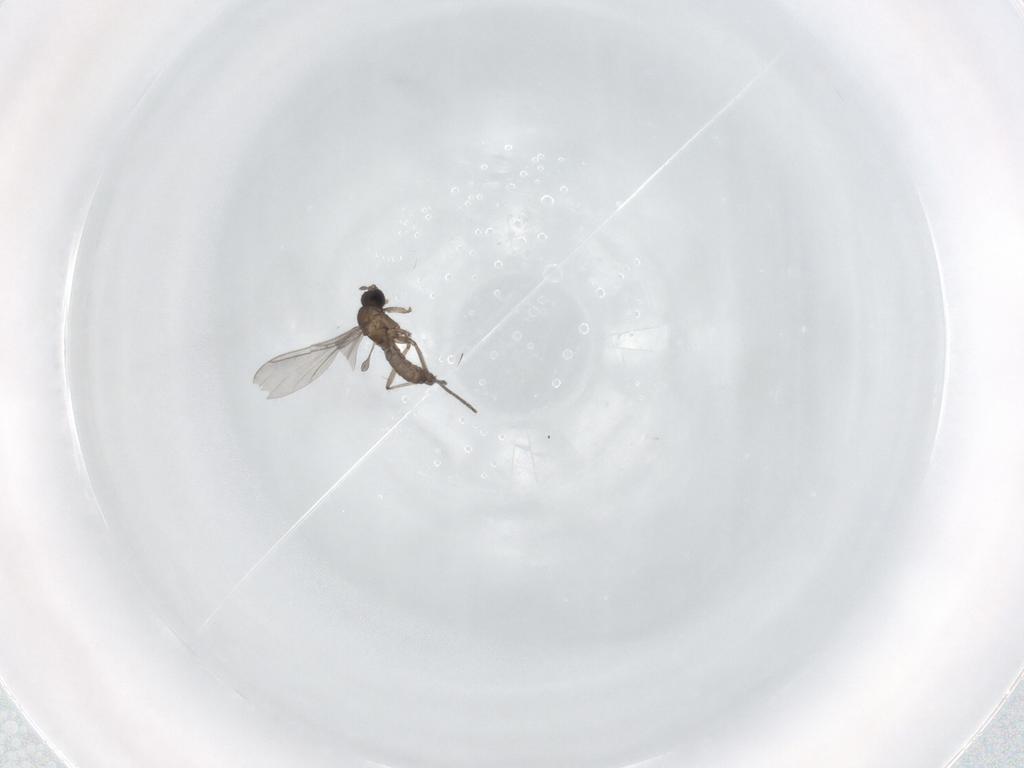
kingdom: Animalia
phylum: Arthropoda
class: Insecta
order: Diptera
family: Sciaridae
